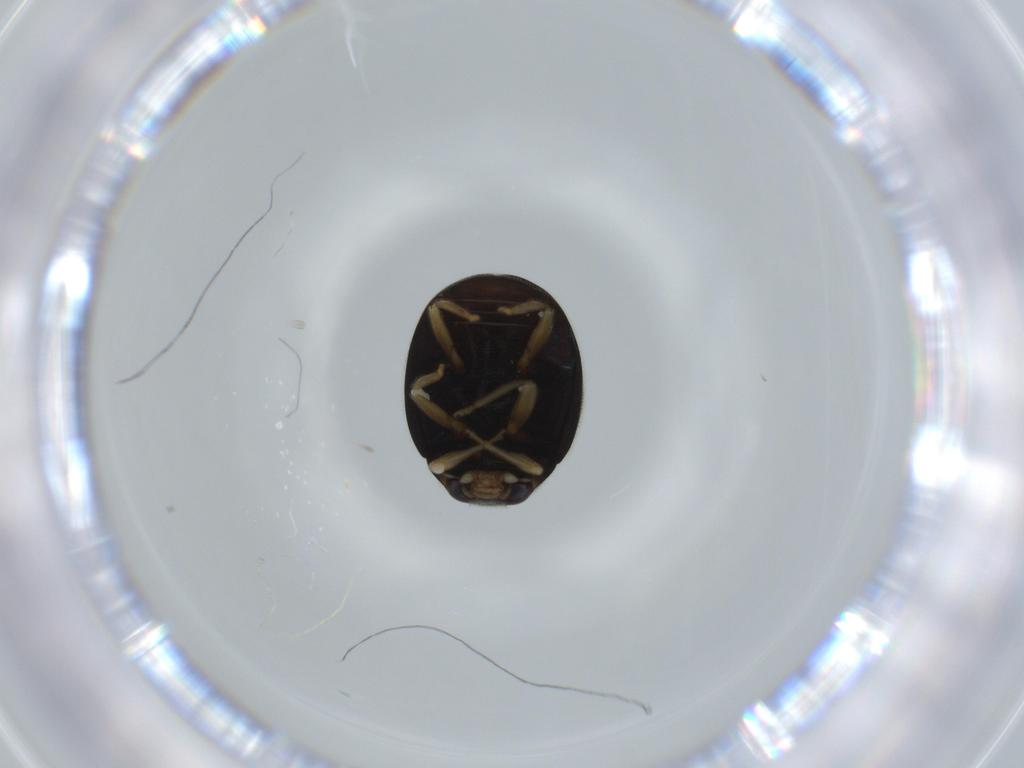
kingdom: Animalia
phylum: Arthropoda
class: Insecta
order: Coleoptera
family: Coccinellidae
